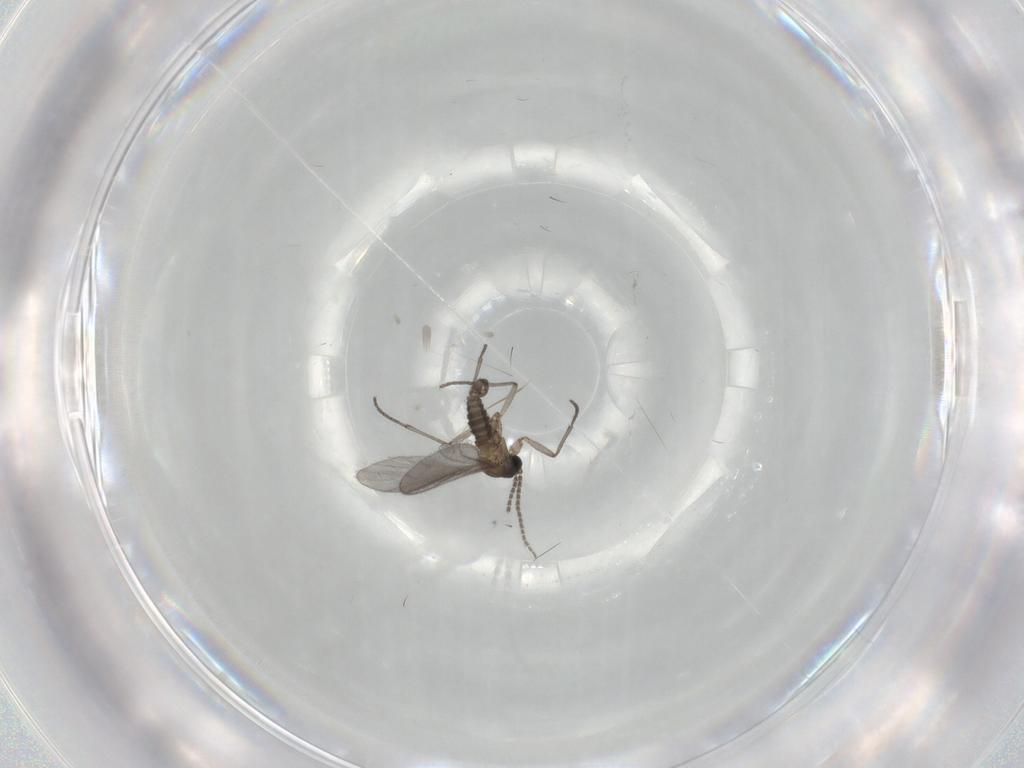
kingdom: Animalia
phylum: Arthropoda
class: Insecta
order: Diptera
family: Sciaridae
